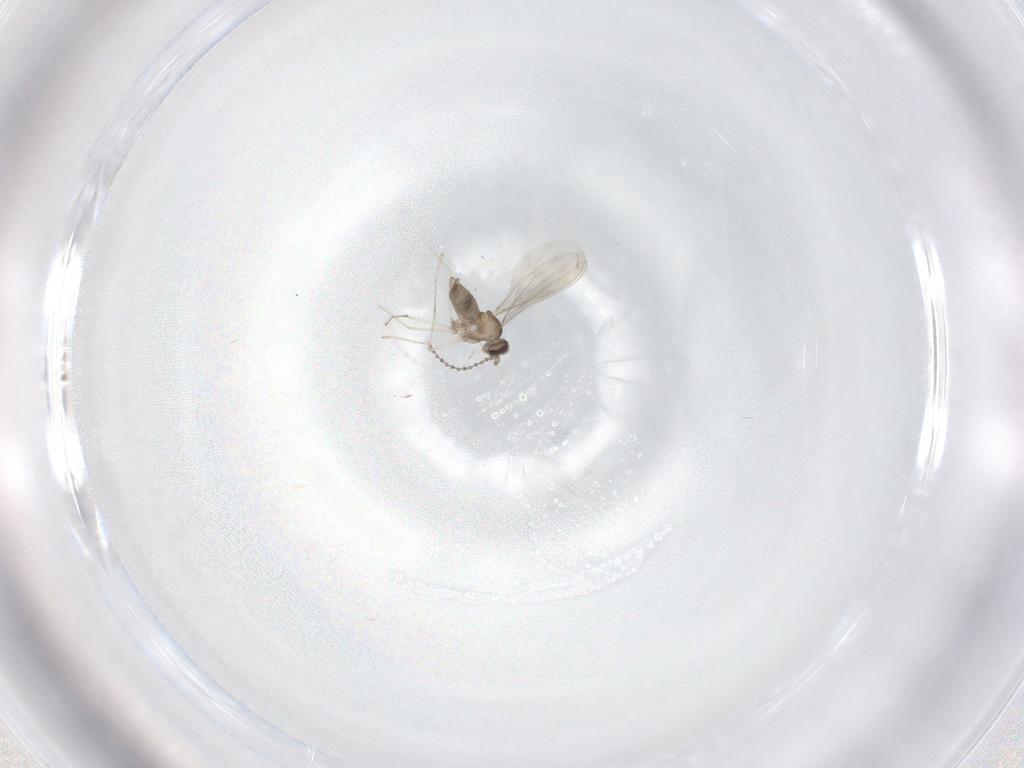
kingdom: Animalia
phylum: Arthropoda
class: Insecta
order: Diptera
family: Cecidomyiidae
